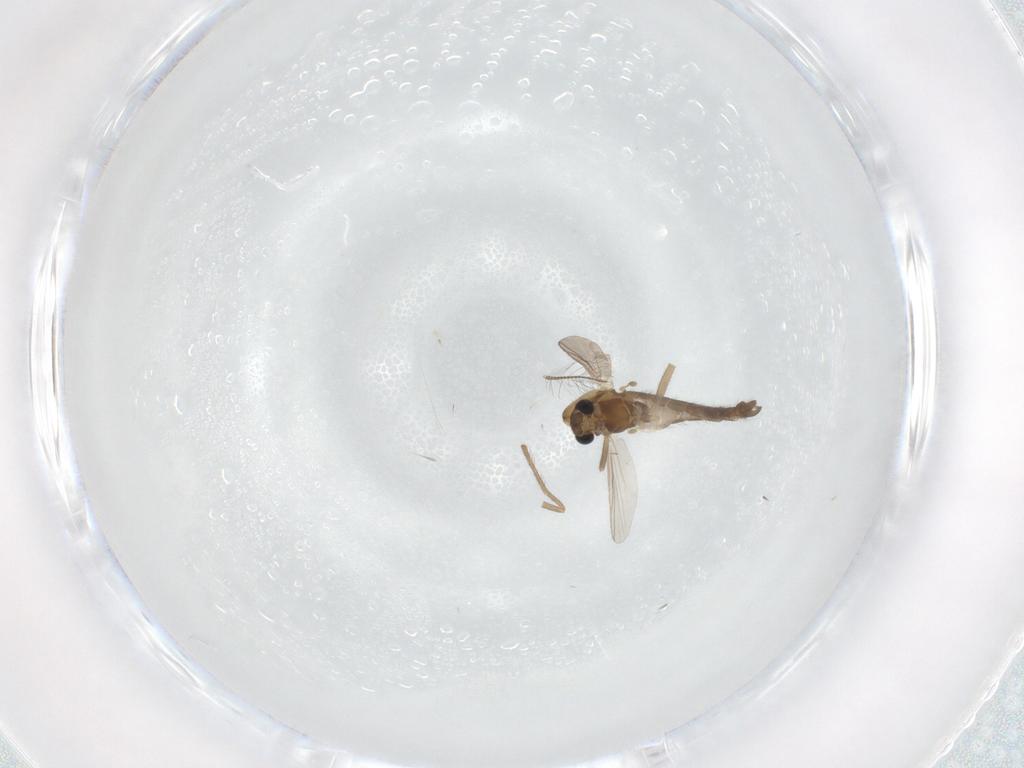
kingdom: Animalia
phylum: Arthropoda
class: Insecta
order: Diptera
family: Chironomidae
